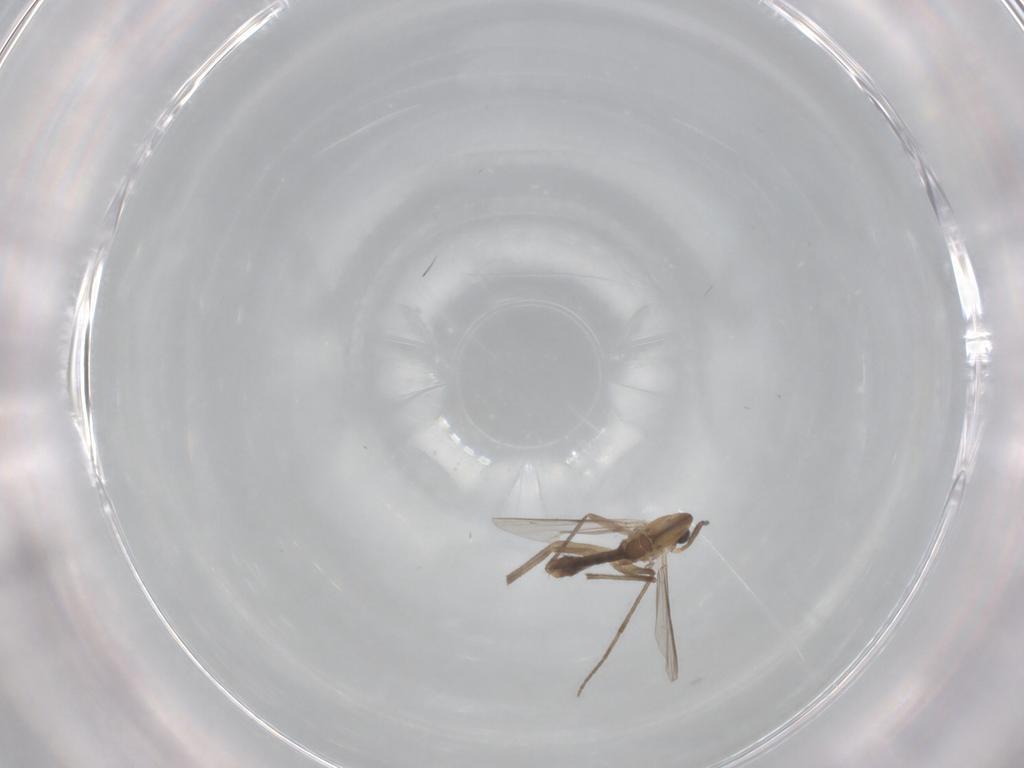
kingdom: Animalia
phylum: Arthropoda
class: Insecta
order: Diptera
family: Chironomidae
